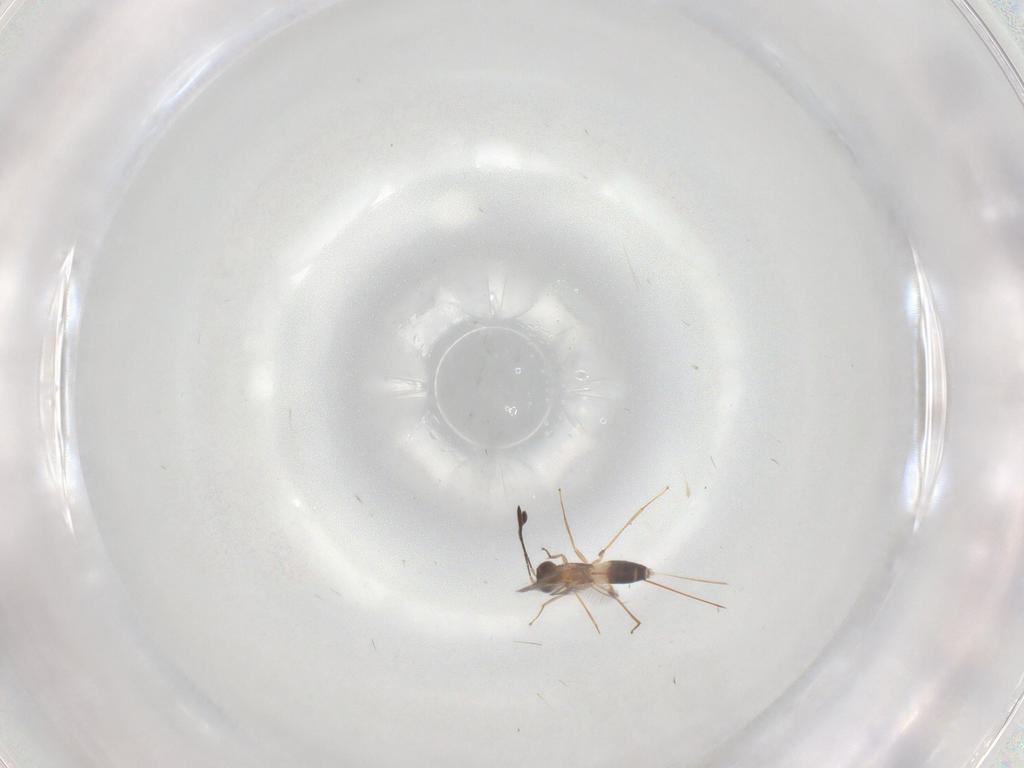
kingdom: Animalia
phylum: Arthropoda
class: Insecta
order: Hymenoptera
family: Mymaridae
